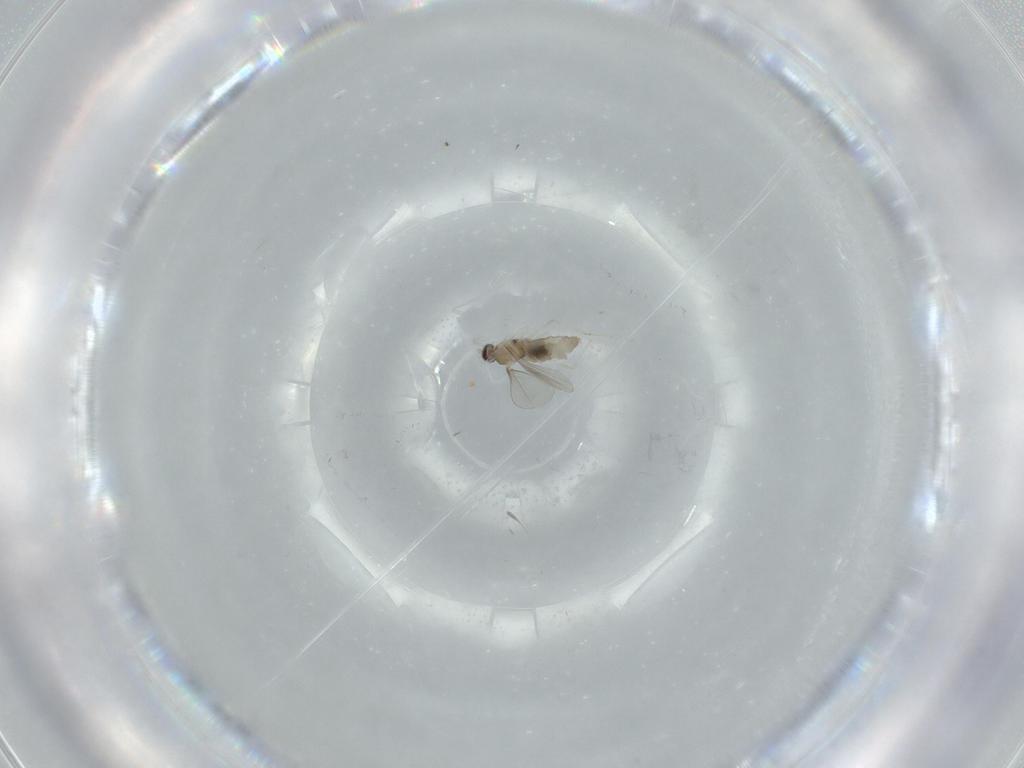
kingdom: Animalia
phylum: Arthropoda
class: Insecta
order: Diptera
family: Cecidomyiidae
